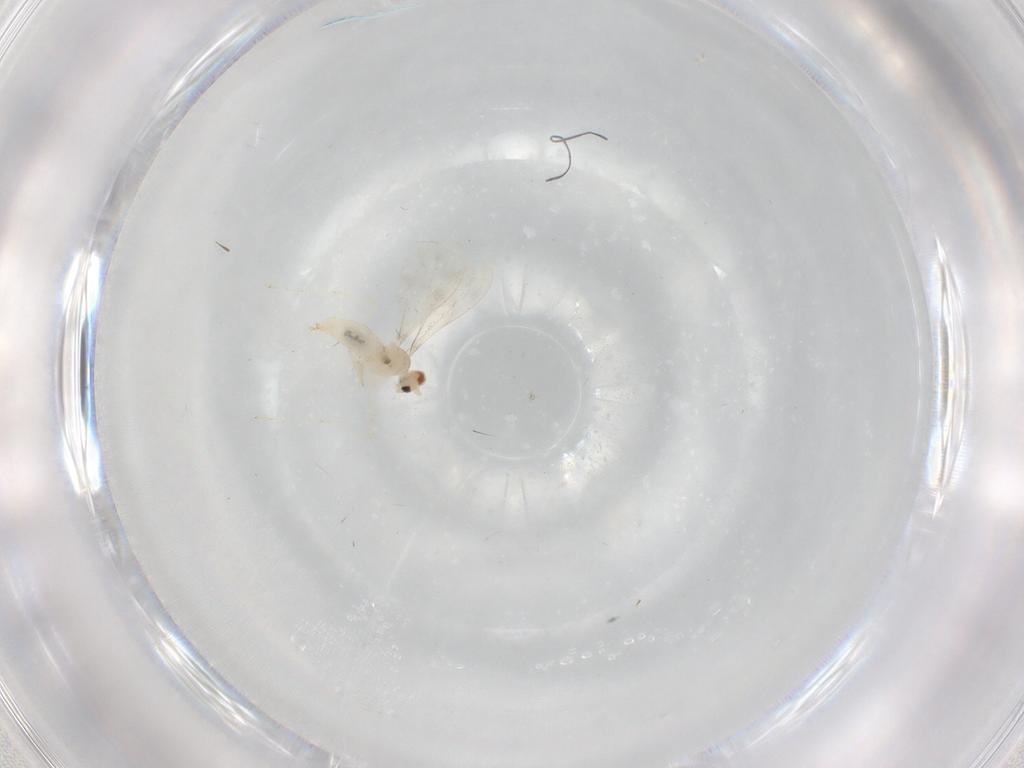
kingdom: Animalia
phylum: Arthropoda
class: Insecta
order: Diptera
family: Cecidomyiidae
